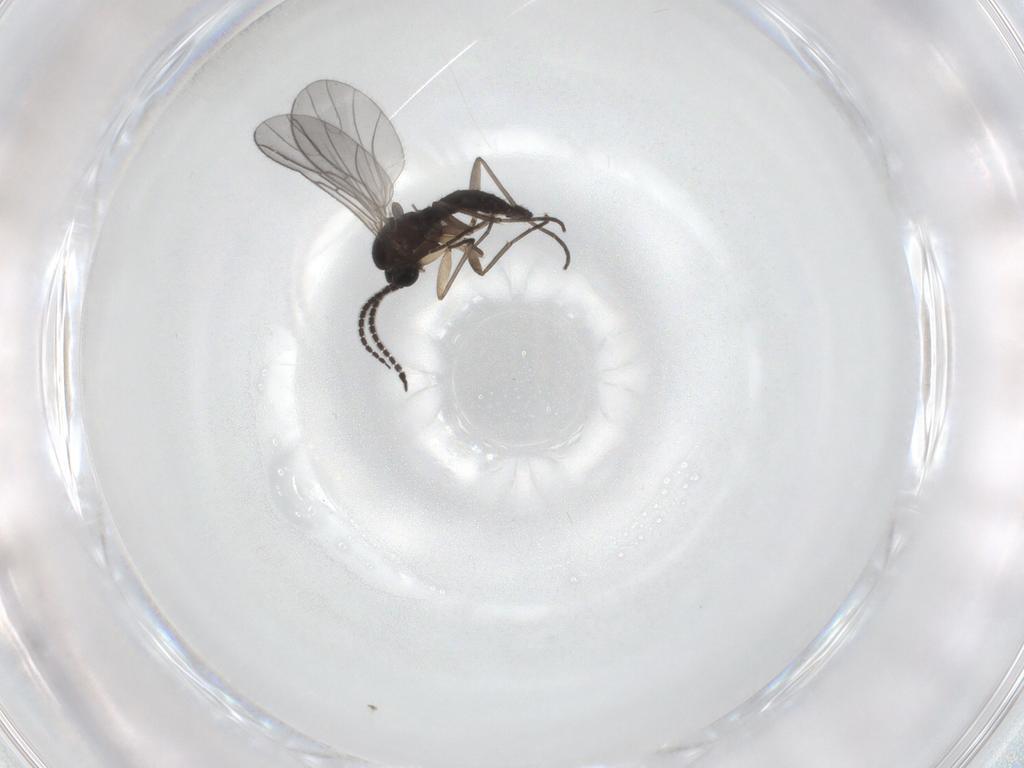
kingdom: Animalia
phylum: Arthropoda
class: Insecta
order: Diptera
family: Sciaridae
